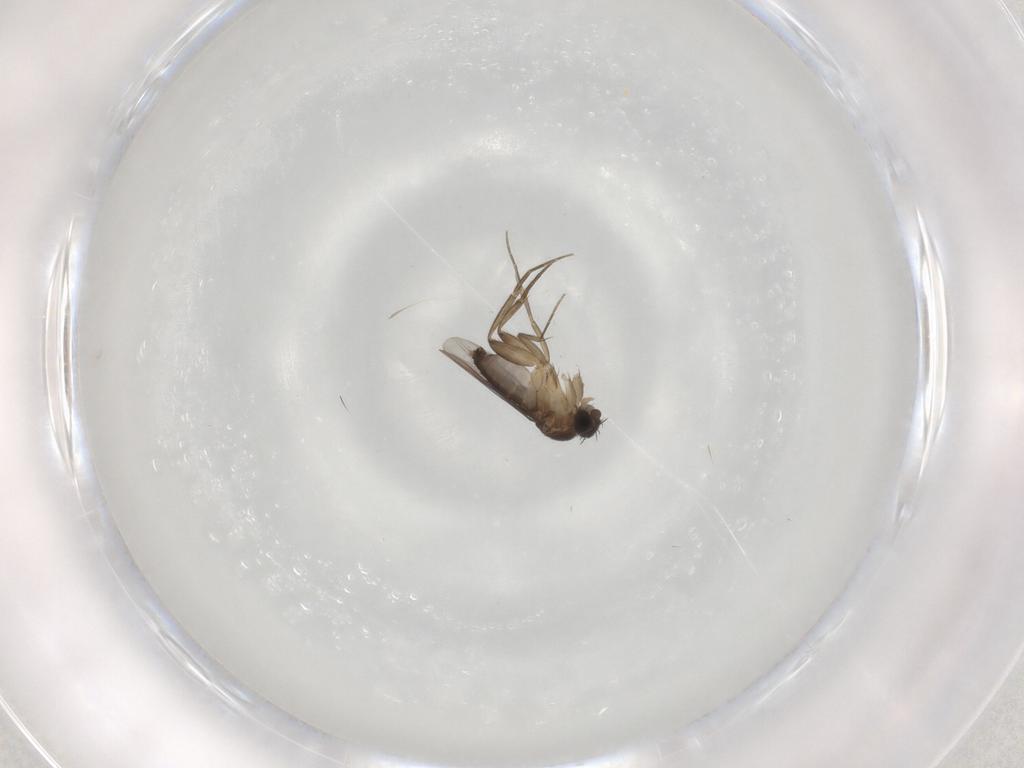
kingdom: Animalia
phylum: Arthropoda
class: Insecta
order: Diptera
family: Phoridae
